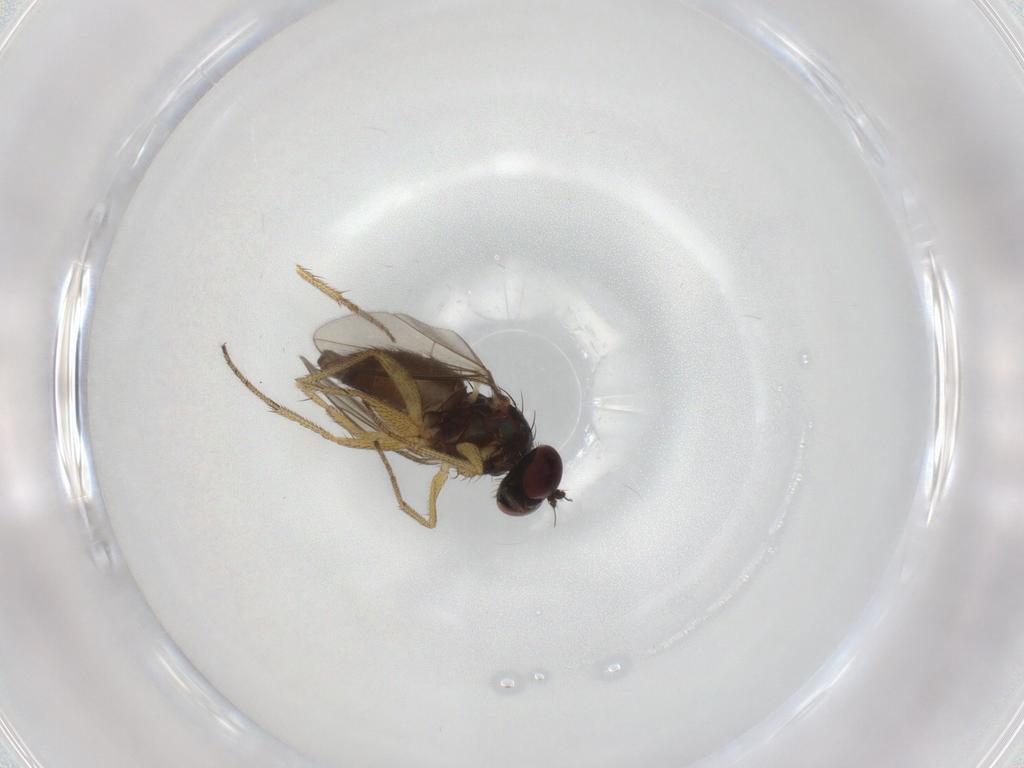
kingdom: Animalia
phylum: Arthropoda
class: Insecta
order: Diptera
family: Dolichopodidae
